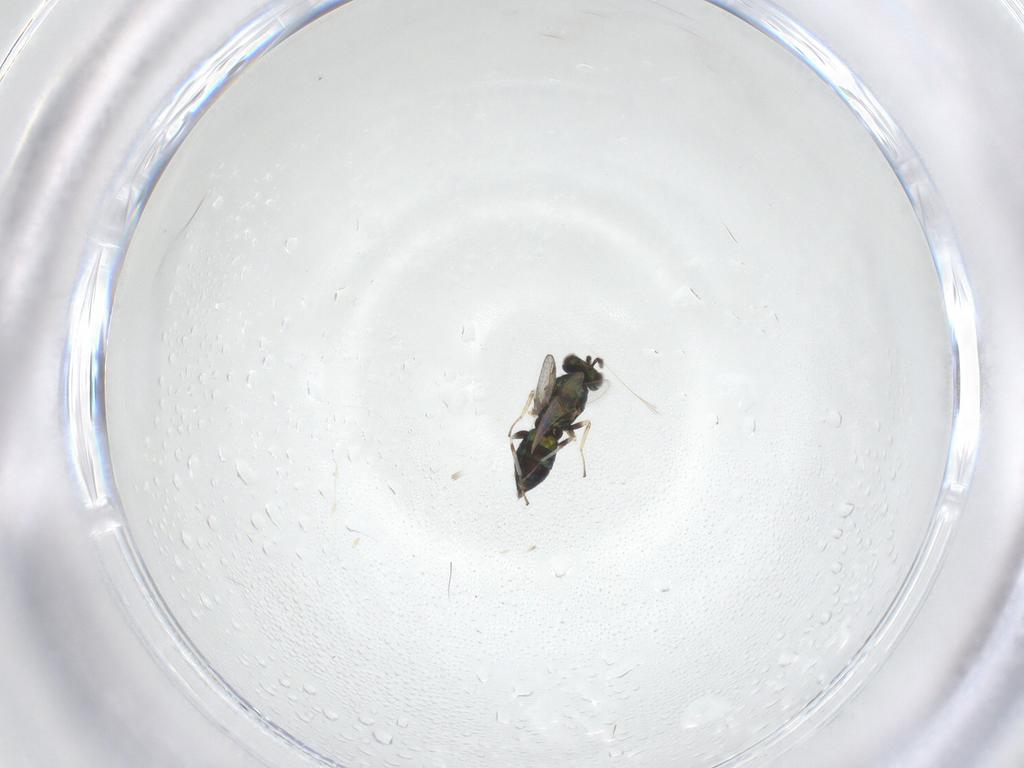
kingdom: Animalia
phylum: Arthropoda
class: Insecta
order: Hymenoptera
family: Eulophidae
